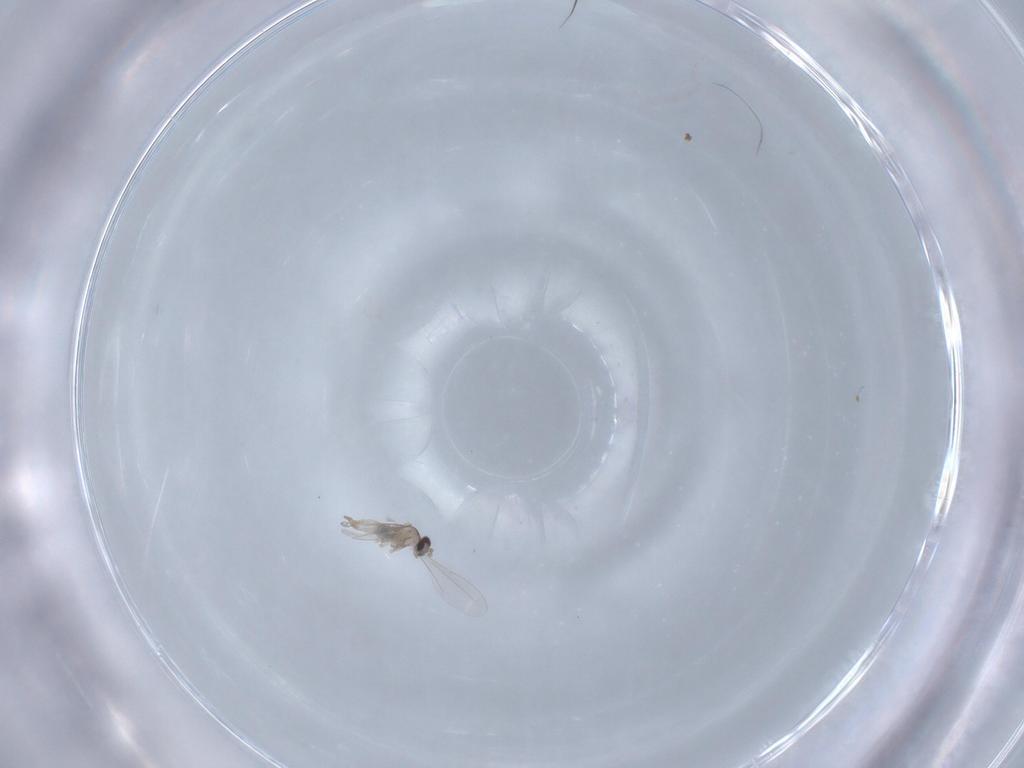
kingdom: Animalia
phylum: Arthropoda
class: Insecta
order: Diptera
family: Cecidomyiidae
